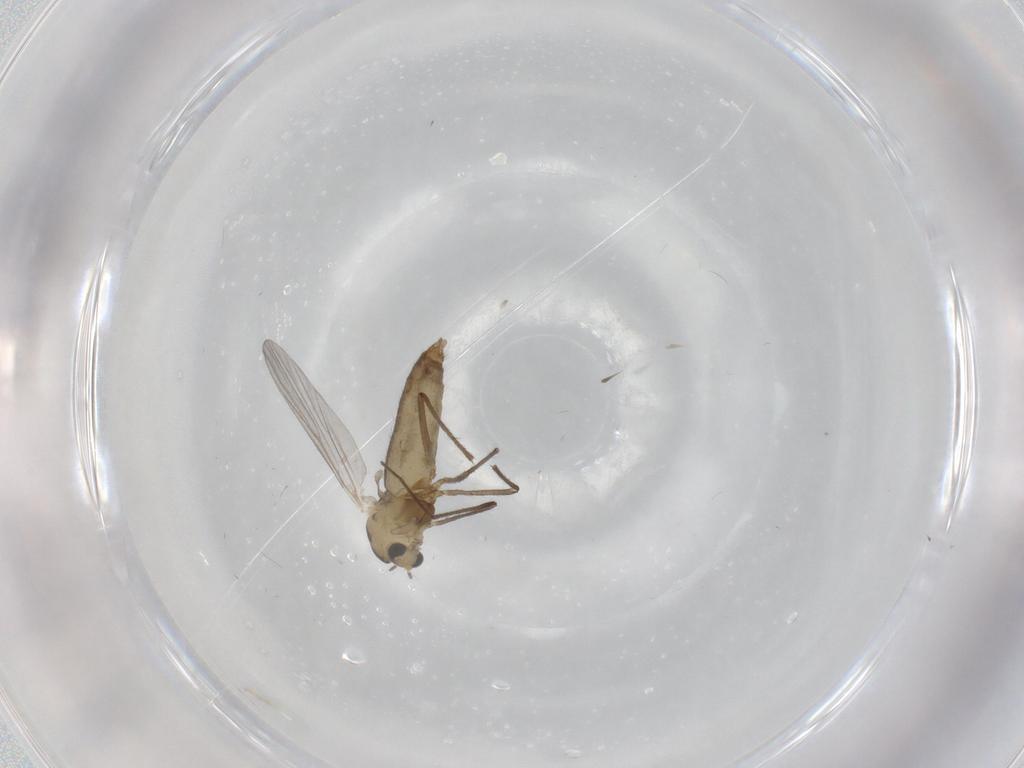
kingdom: Animalia
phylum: Arthropoda
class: Insecta
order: Diptera
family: Chironomidae
